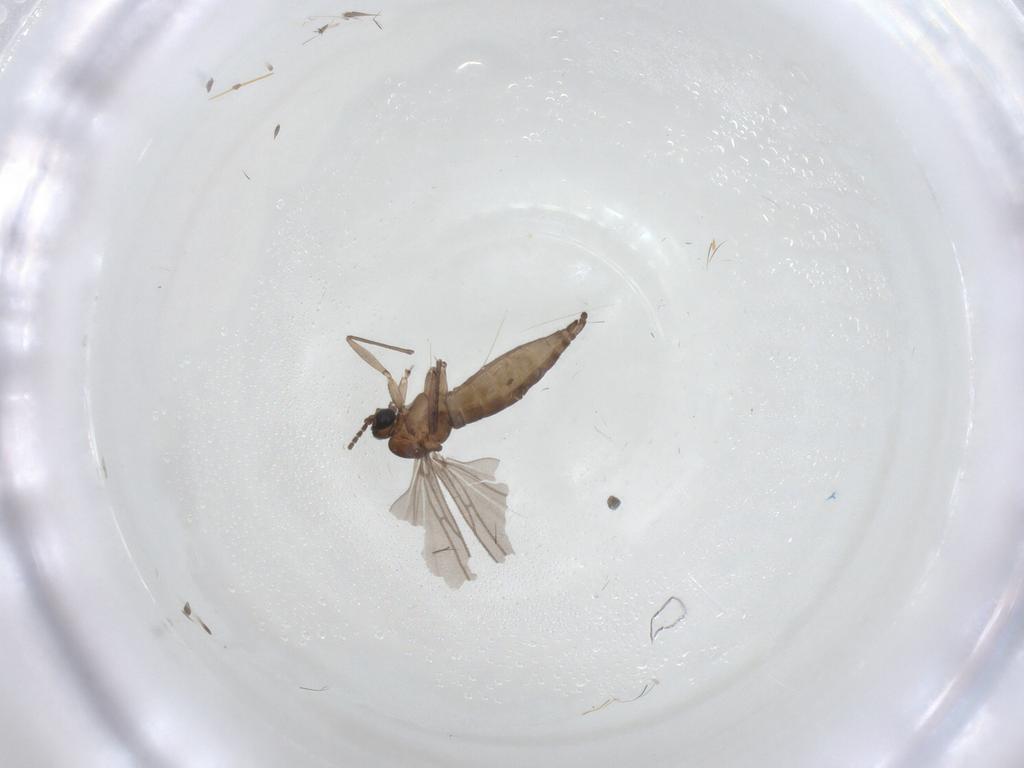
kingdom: Animalia
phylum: Arthropoda
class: Insecta
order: Diptera
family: Sciaridae
